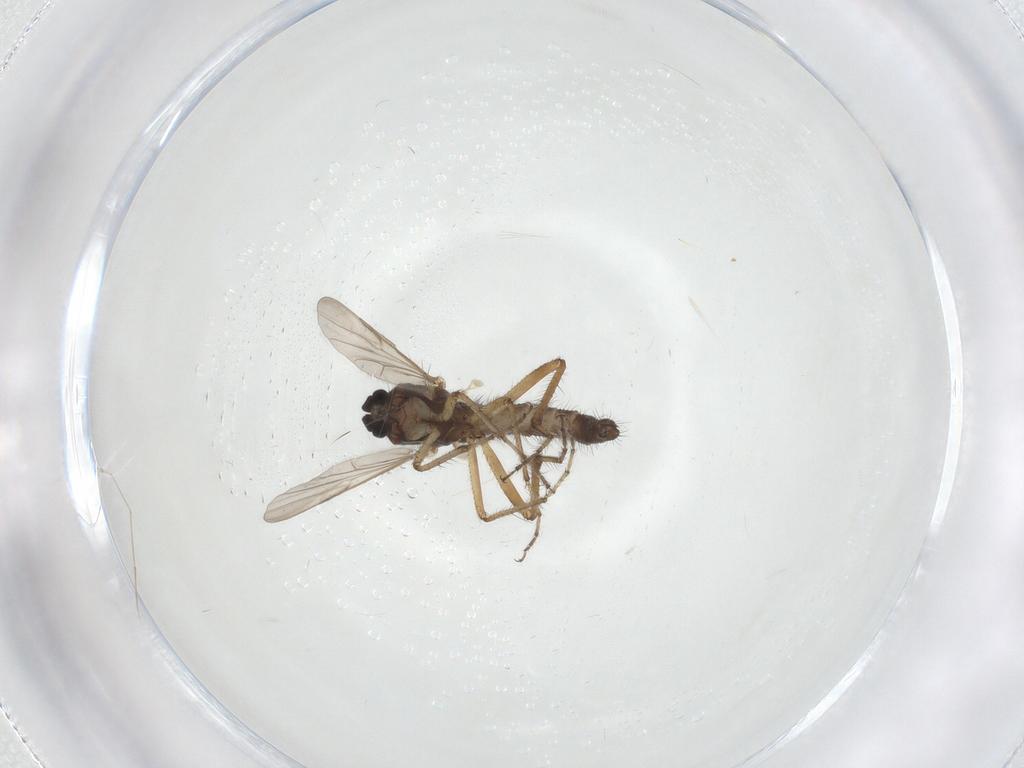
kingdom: Animalia
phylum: Arthropoda
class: Insecta
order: Diptera
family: Ceratopogonidae
